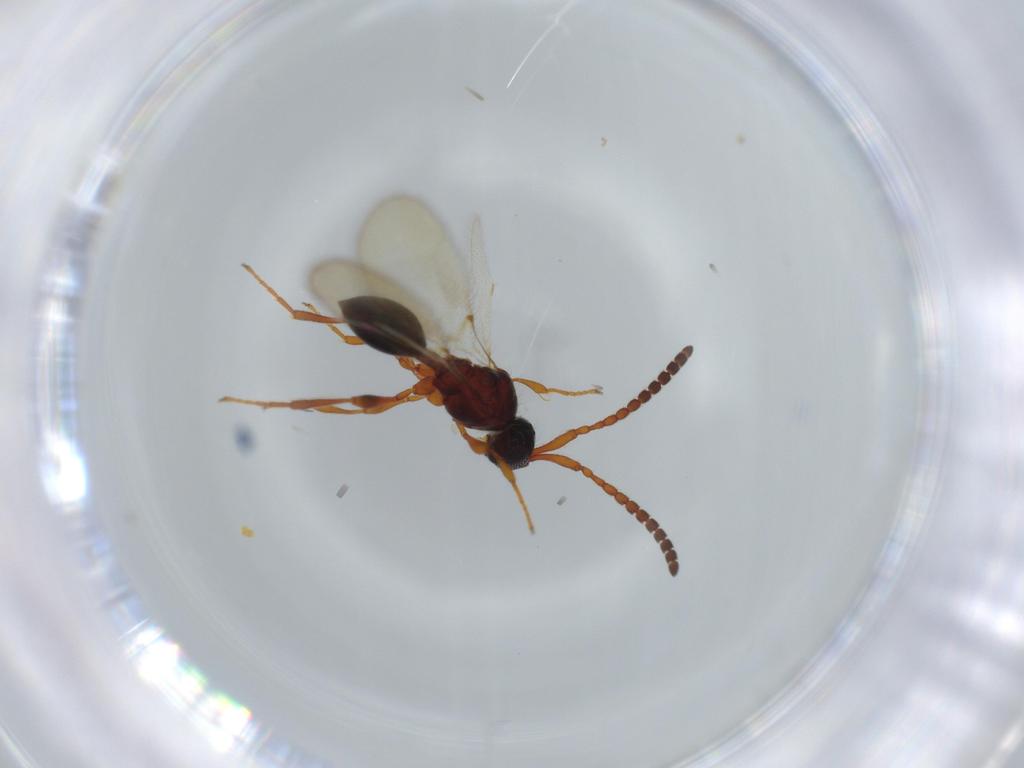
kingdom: Animalia
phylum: Arthropoda
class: Insecta
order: Hymenoptera
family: Diapriidae
